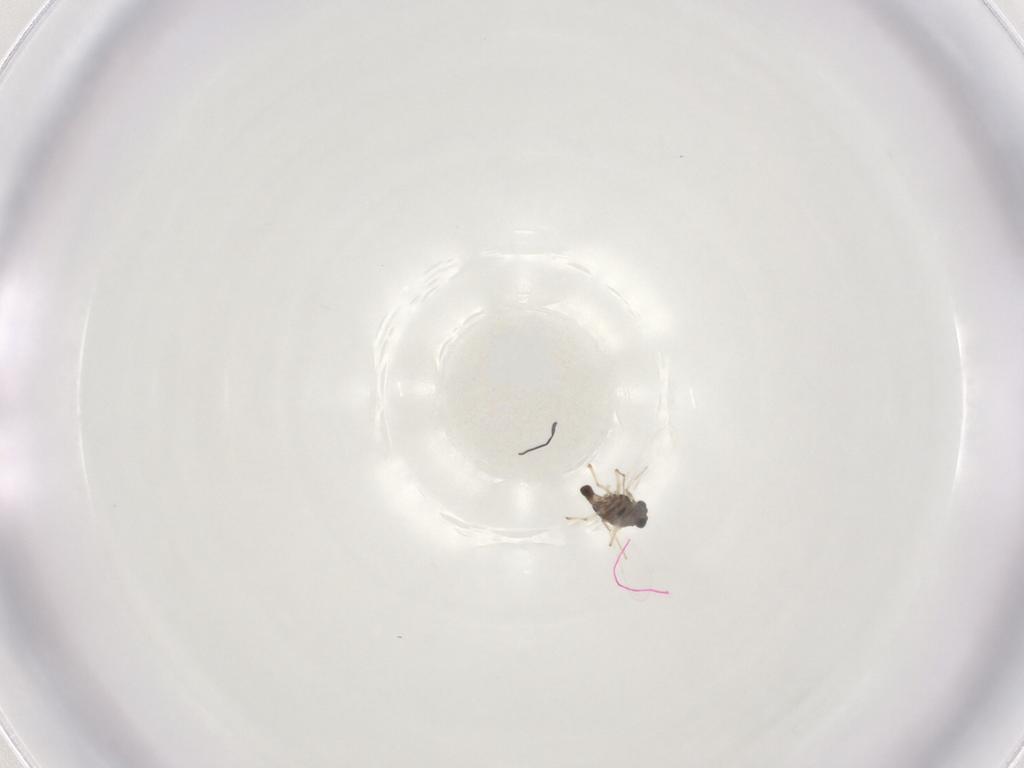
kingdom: Animalia
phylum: Arthropoda
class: Insecta
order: Diptera
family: Chironomidae
